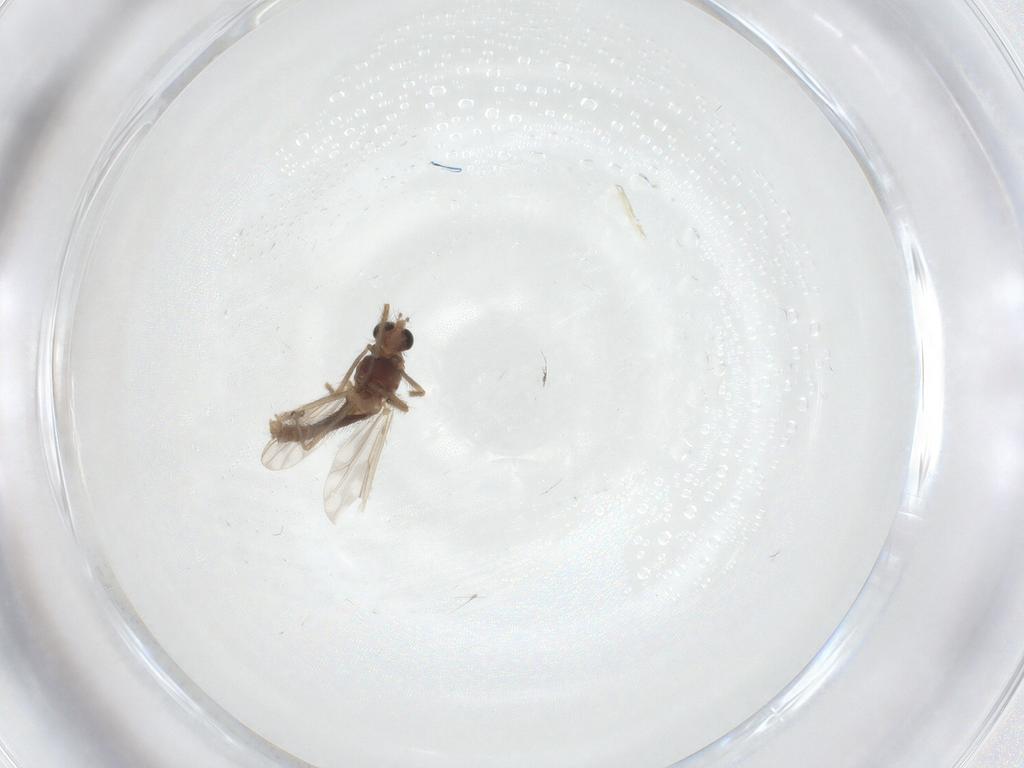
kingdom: Animalia
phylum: Arthropoda
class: Insecta
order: Diptera
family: Chironomidae
